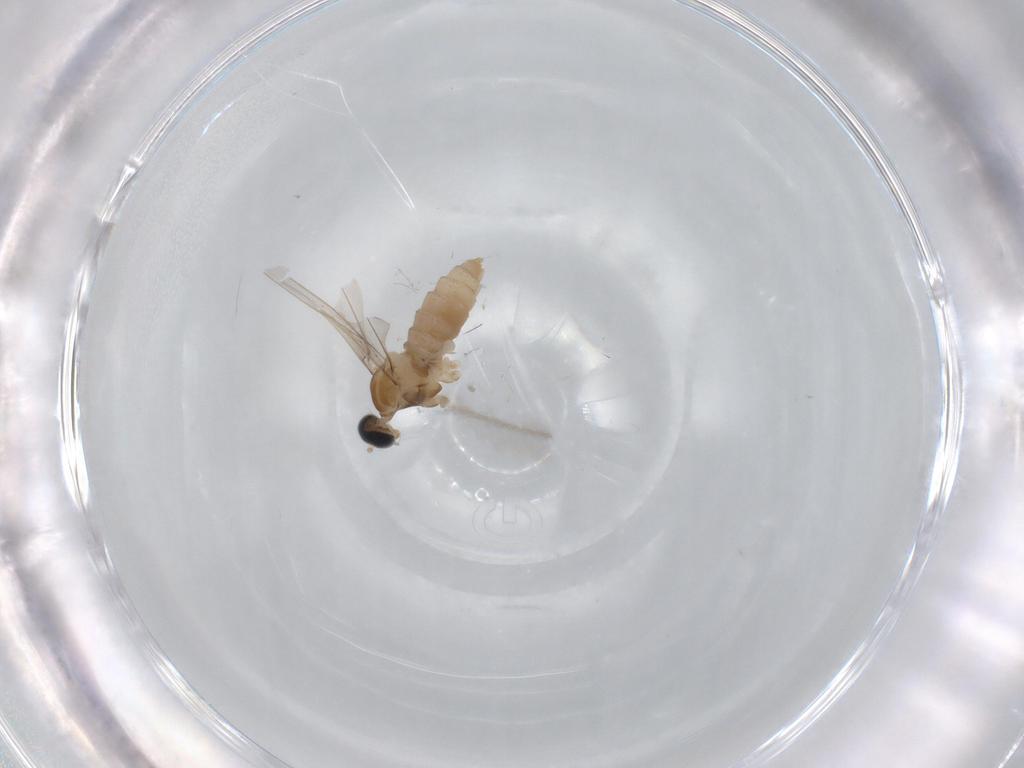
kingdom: Animalia
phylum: Arthropoda
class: Insecta
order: Diptera
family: Cecidomyiidae
